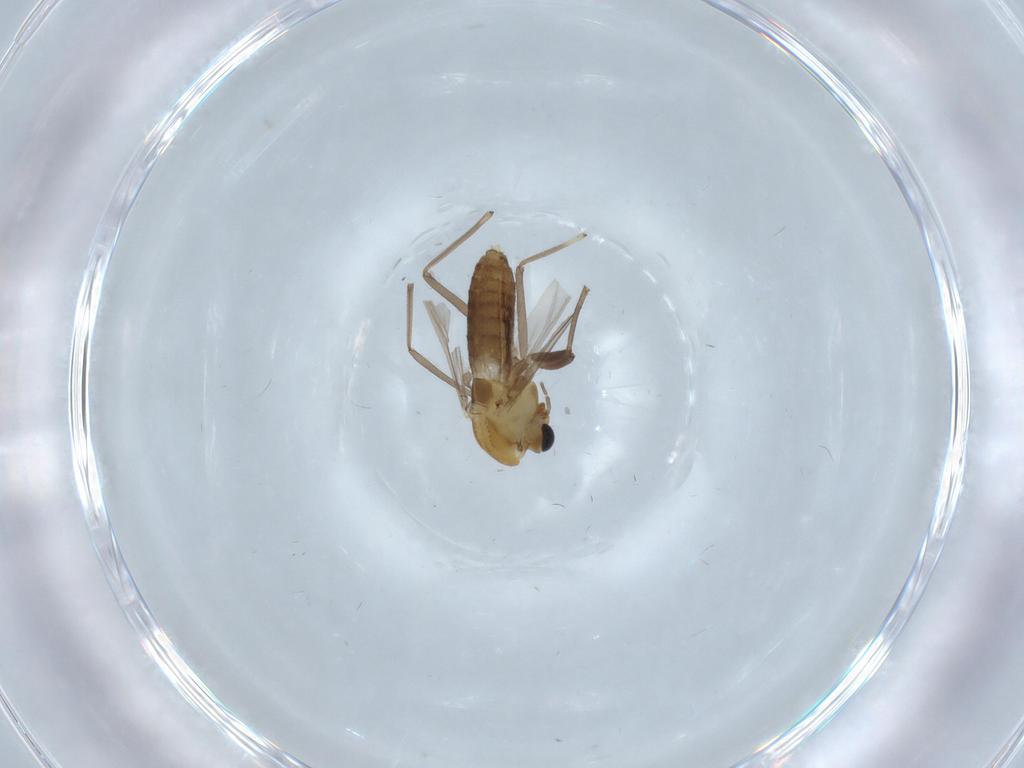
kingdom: Animalia
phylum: Arthropoda
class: Insecta
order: Diptera
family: Chironomidae
